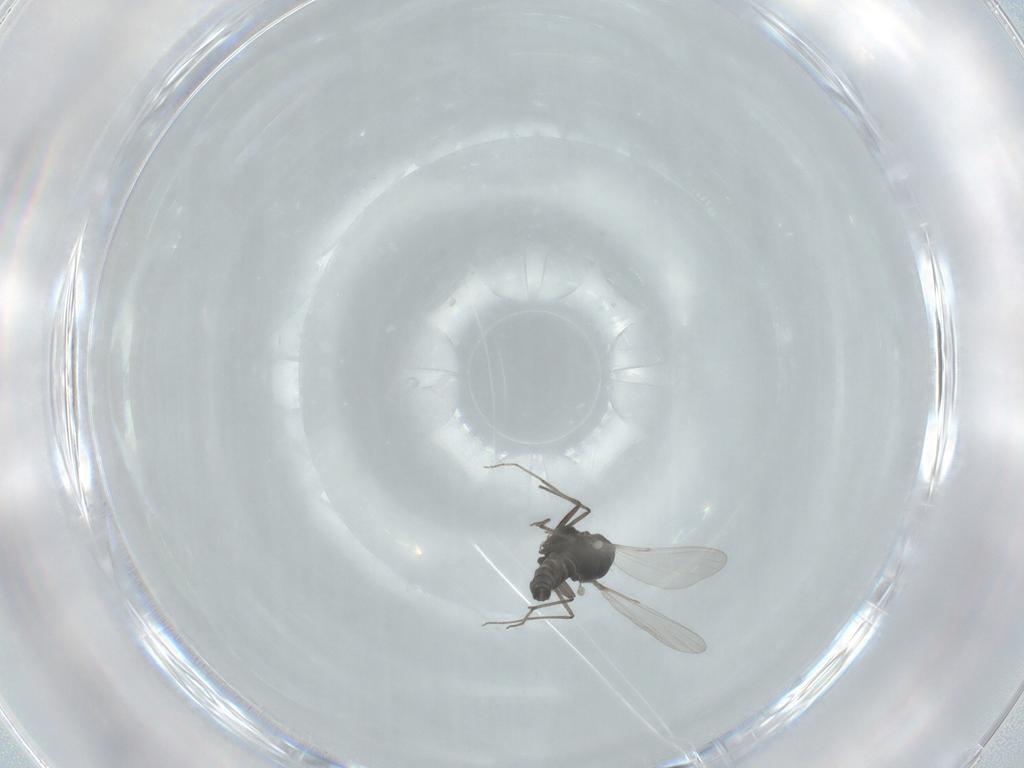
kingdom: Animalia
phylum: Arthropoda
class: Insecta
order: Diptera
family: Chironomidae
